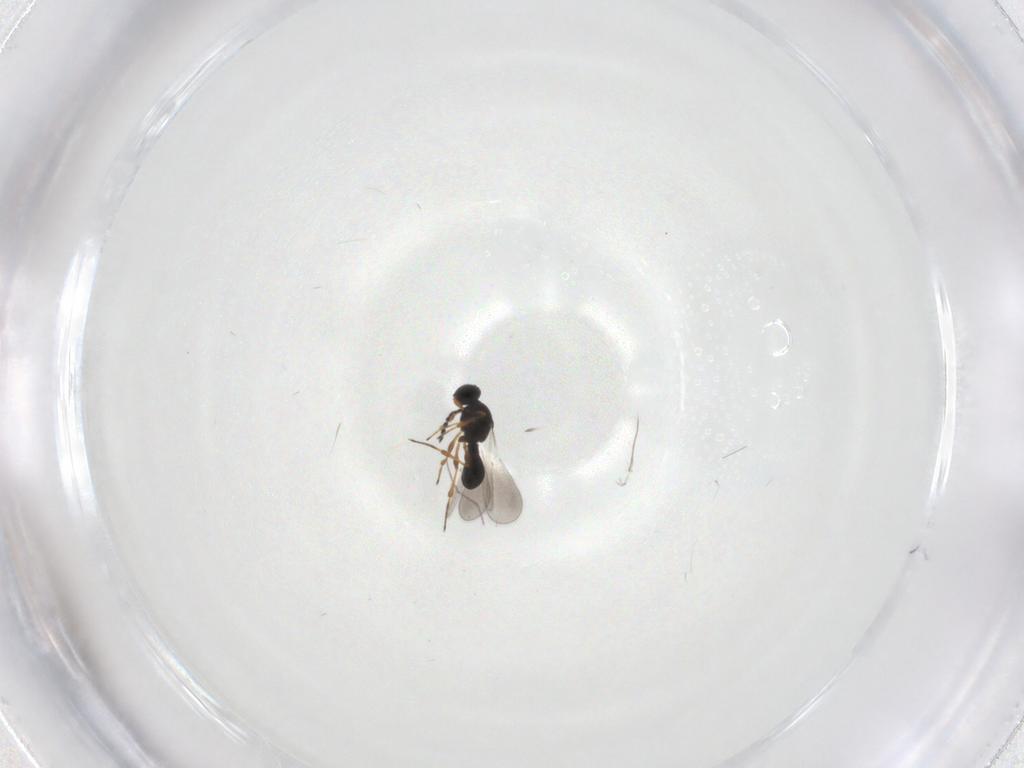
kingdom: Animalia
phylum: Arthropoda
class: Insecta
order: Hymenoptera
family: Platygastridae
